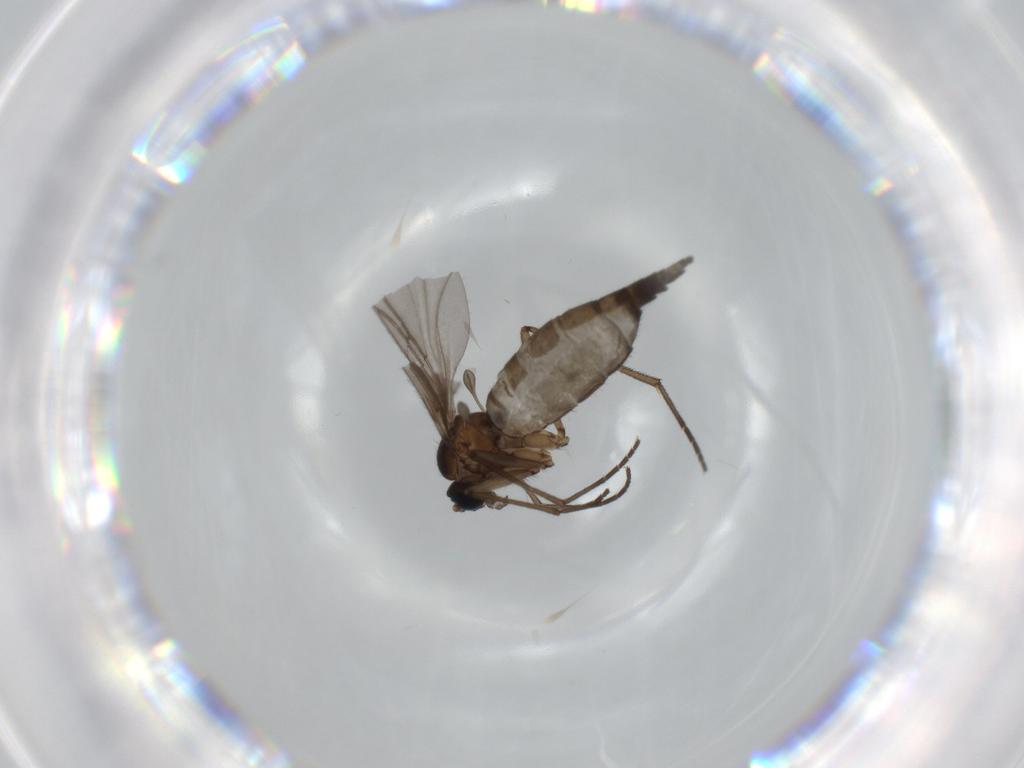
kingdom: Animalia
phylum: Arthropoda
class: Insecta
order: Diptera
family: Sciaridae
